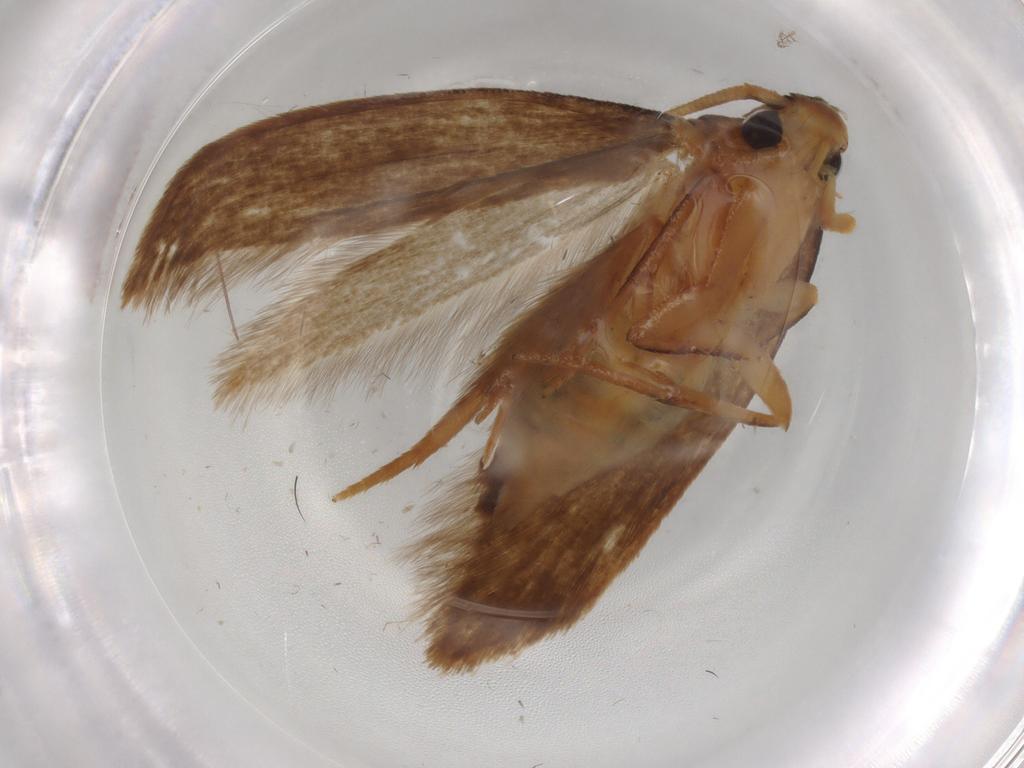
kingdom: Animalia
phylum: Arthropoda
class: Insecta
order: Lepidoptera
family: Tineidae
